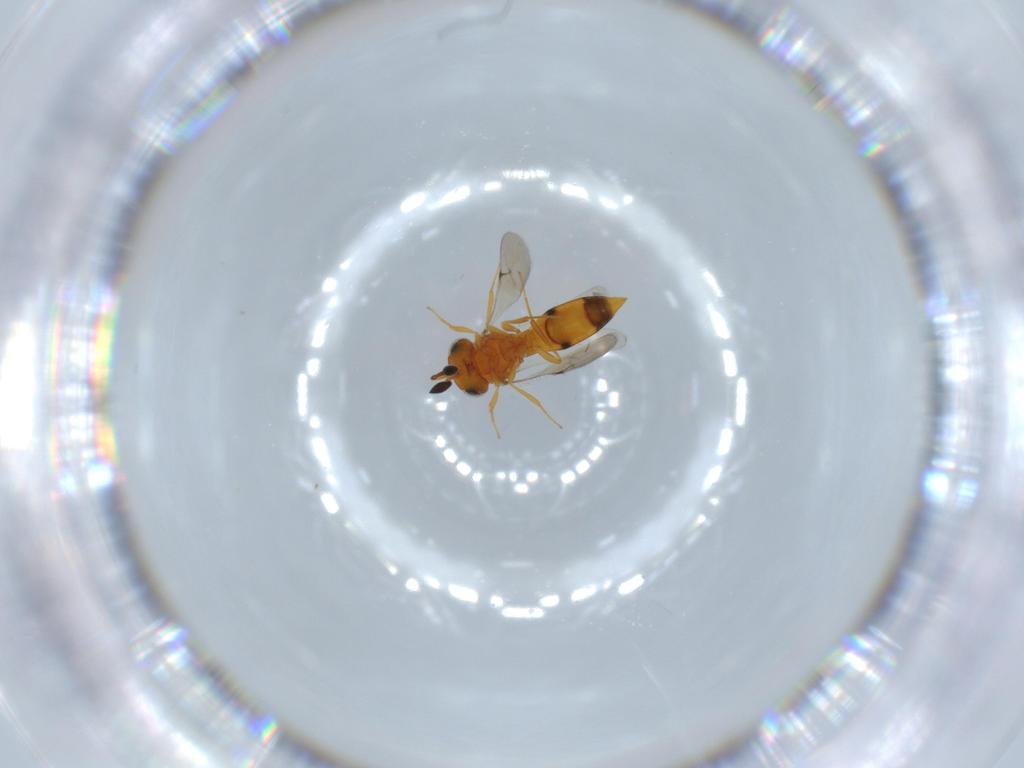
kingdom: Animalia
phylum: Arthropoda
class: Insecta
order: Hymenoptera
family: Scelionidae
